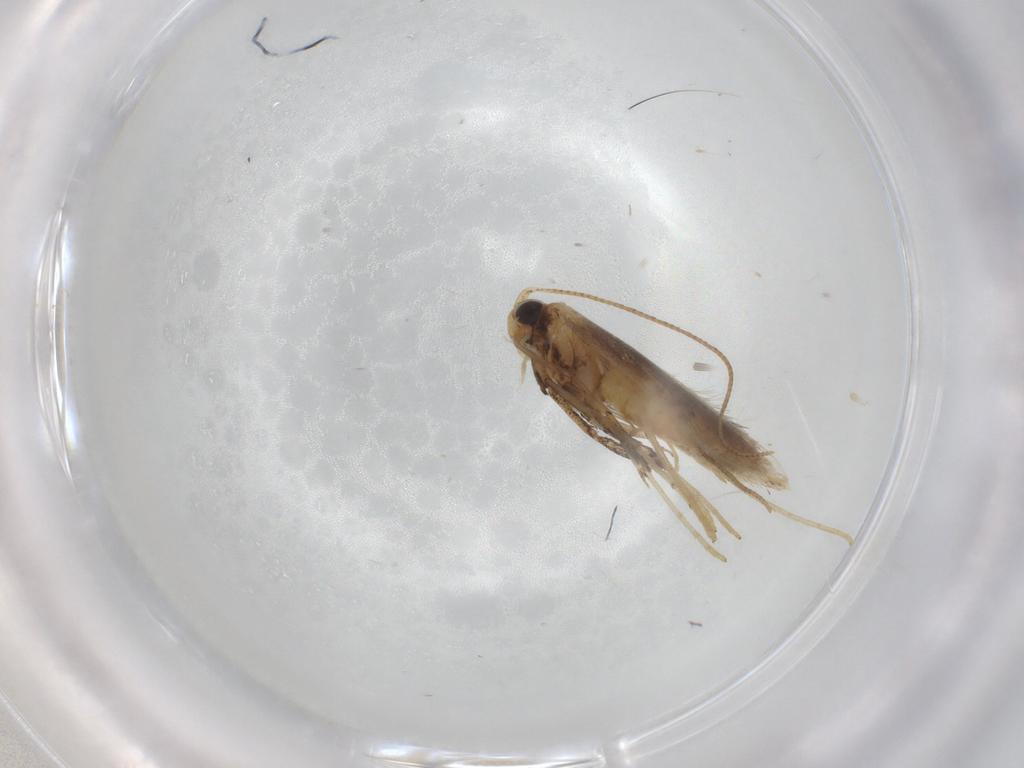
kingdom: Animalia
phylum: Arthropoda
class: Insecta
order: Lepidoptera
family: Gracillariidae
